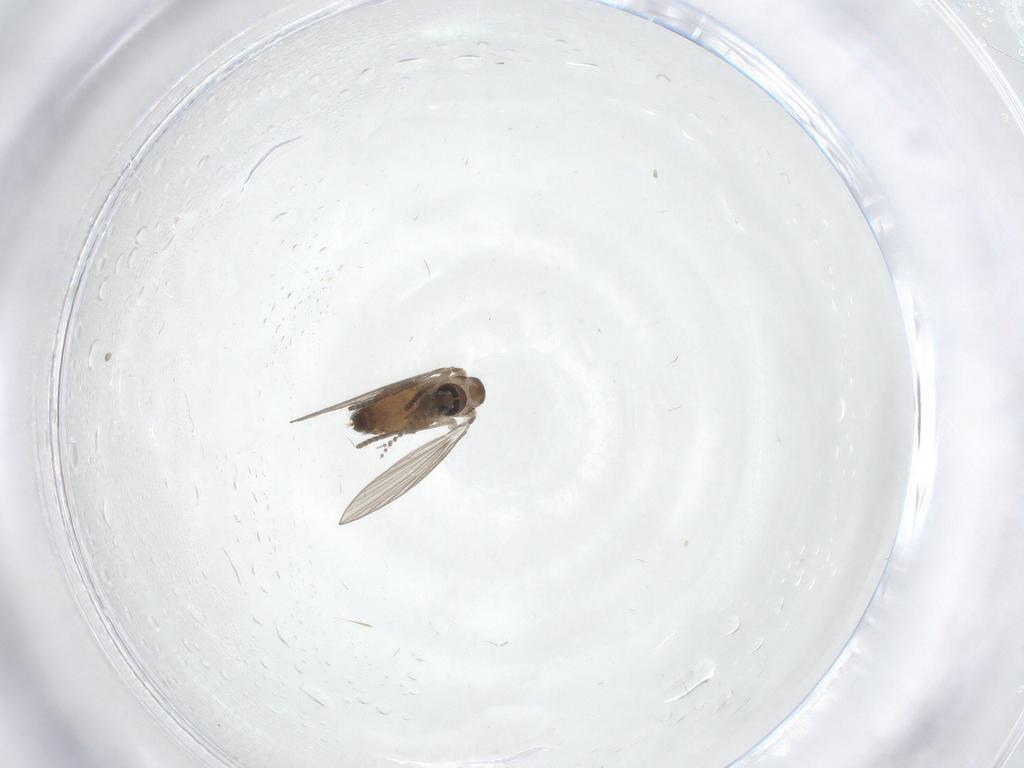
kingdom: Animalia
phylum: Arthropoda
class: Insecta
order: Diptera
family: Psychodidae
